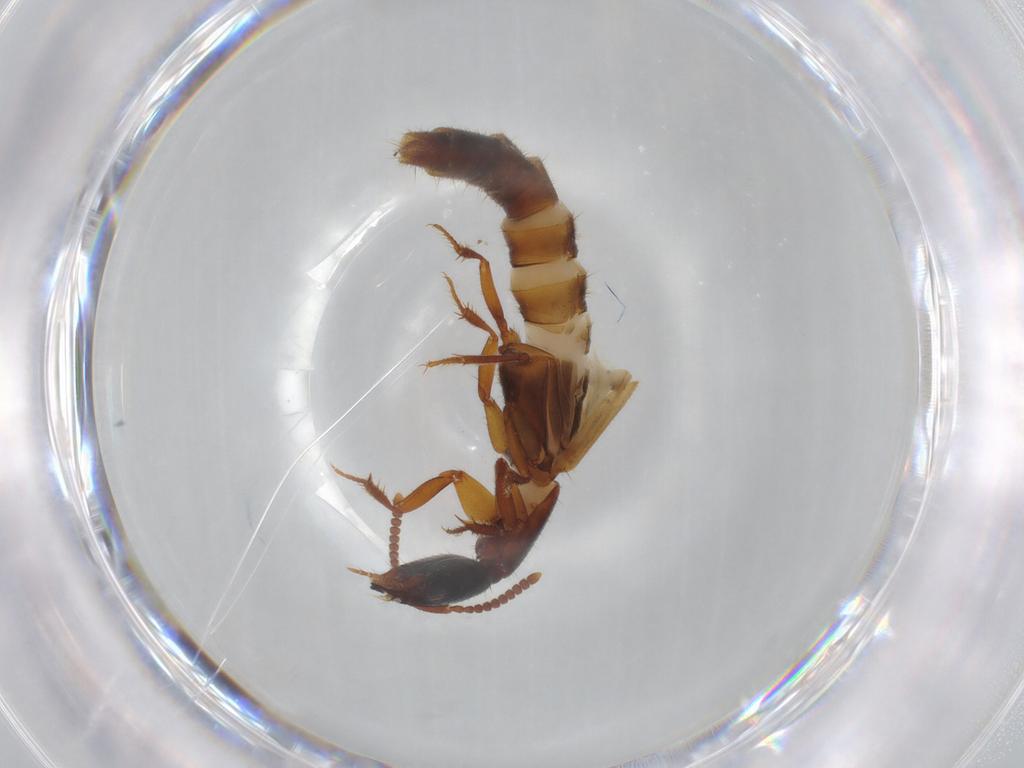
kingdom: Animalia
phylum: Arthropoda
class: Insecta
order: Coleoptera
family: Staphylinidae
